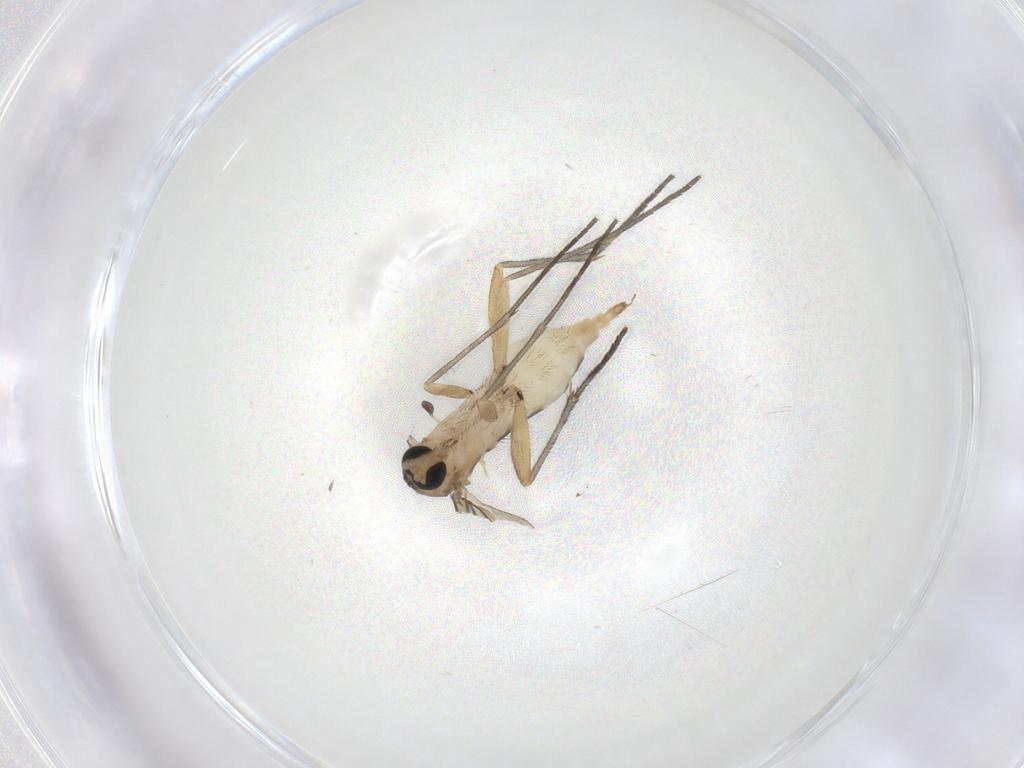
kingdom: Animalia
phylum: Arthropoda
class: Insecta
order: Diptera
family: Sciaridae
